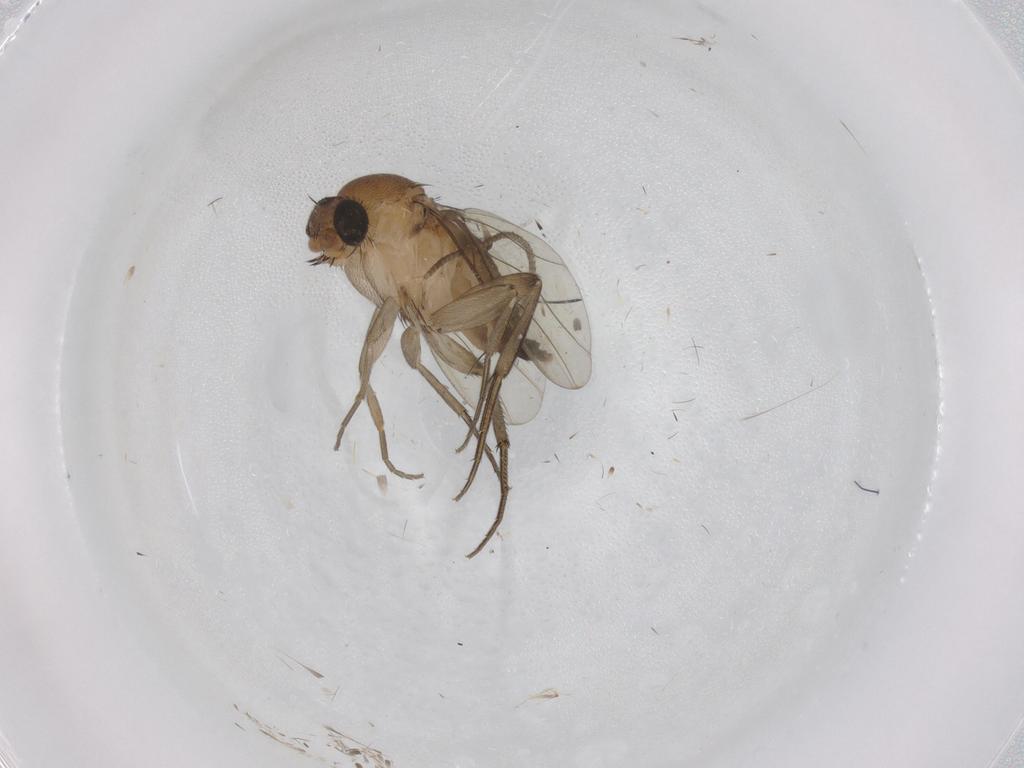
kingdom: Animalia
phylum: Arthropoda
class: Insecta
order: Diptera
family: Phoridae
